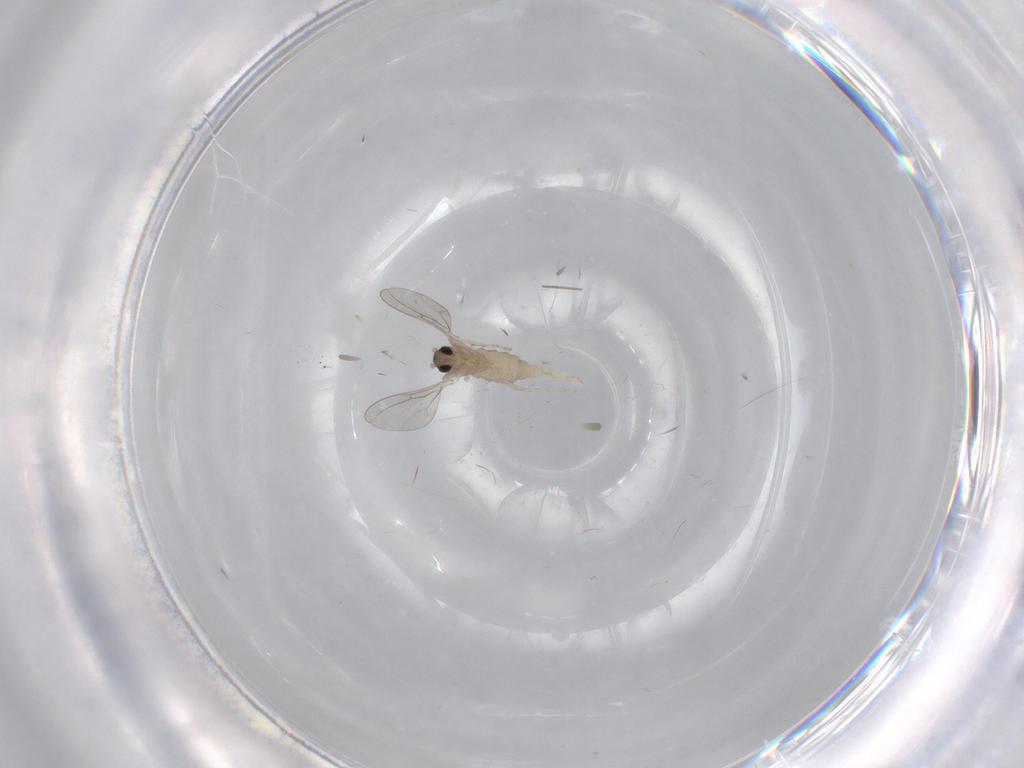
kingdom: Animalia
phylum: Arthropoda
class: Insecta
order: Diptera
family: Cecidomyiidae
